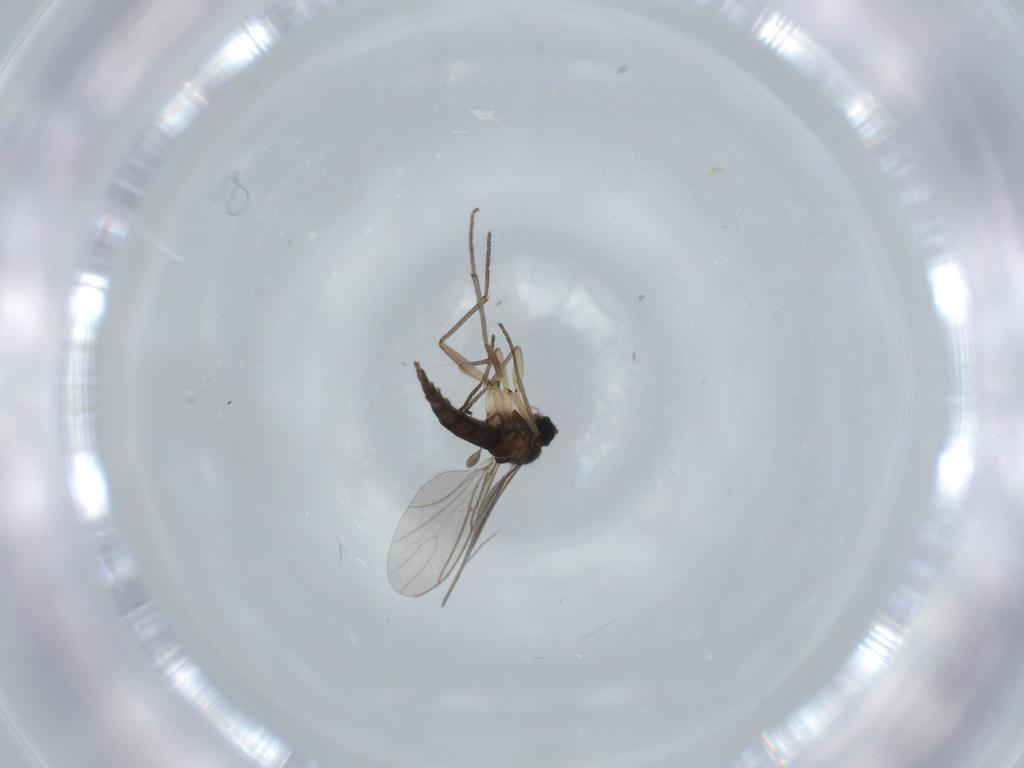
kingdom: Animalia
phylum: Arthropoda
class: Insecta
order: Diptera
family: Sciaridae
